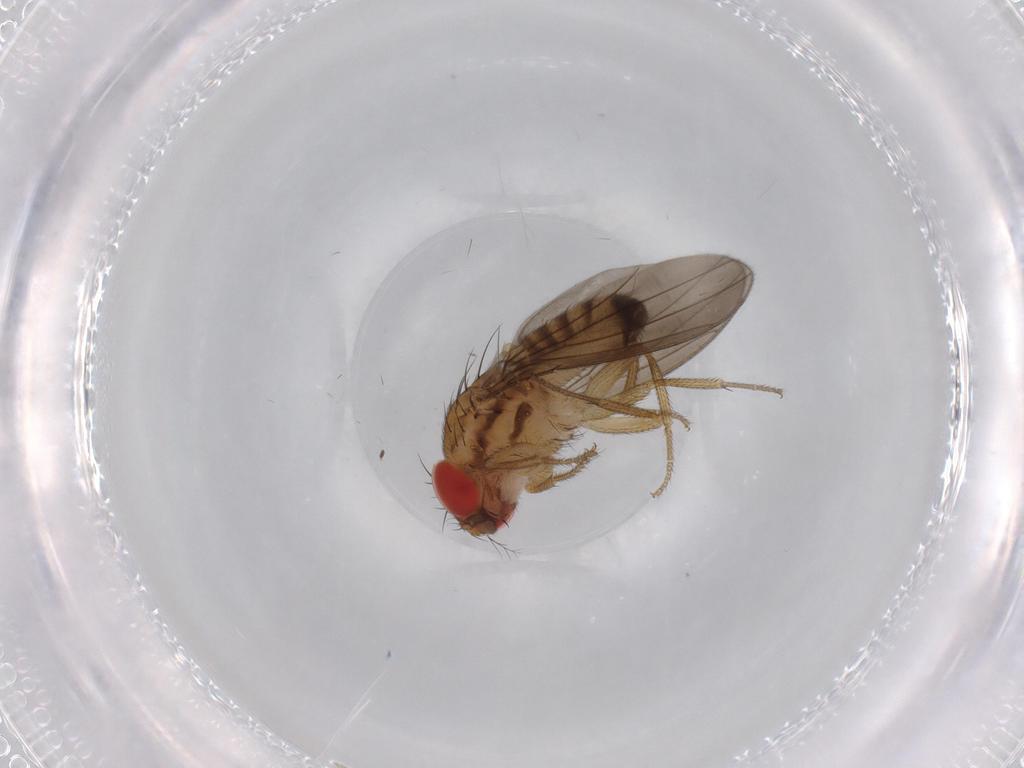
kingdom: Animalia
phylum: Arthropoda
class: Insecta
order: Diptera
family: Drosophilidae
